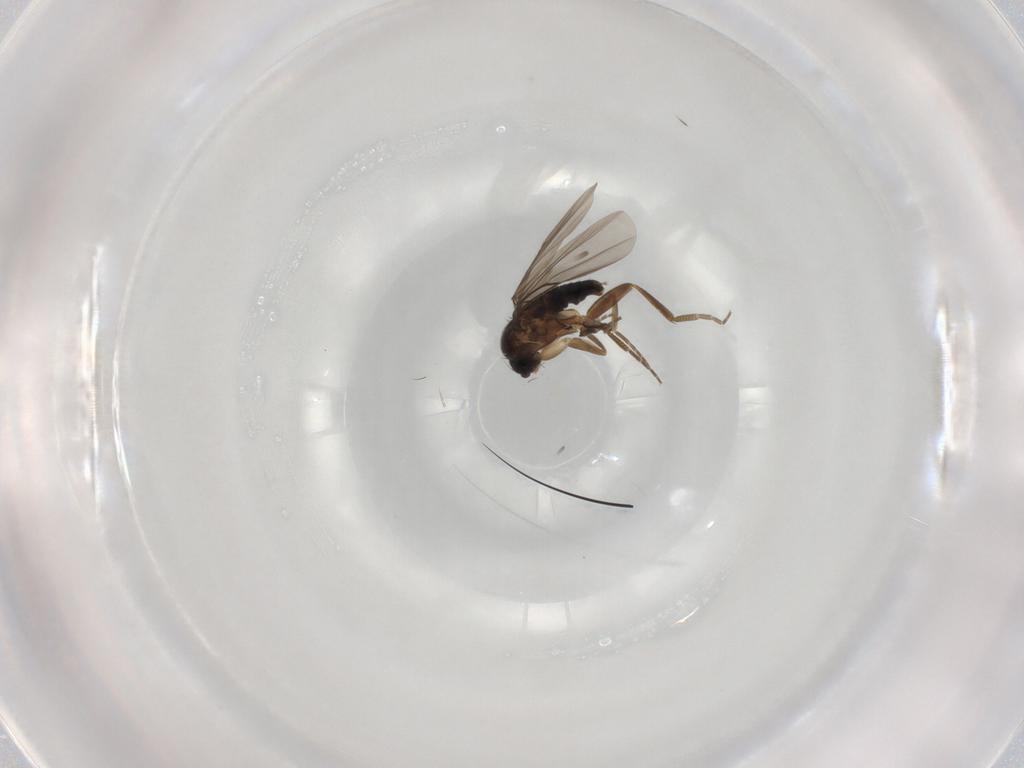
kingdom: Animalia
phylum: Arthropoda
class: Insecta
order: Diptera
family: Phoridae
